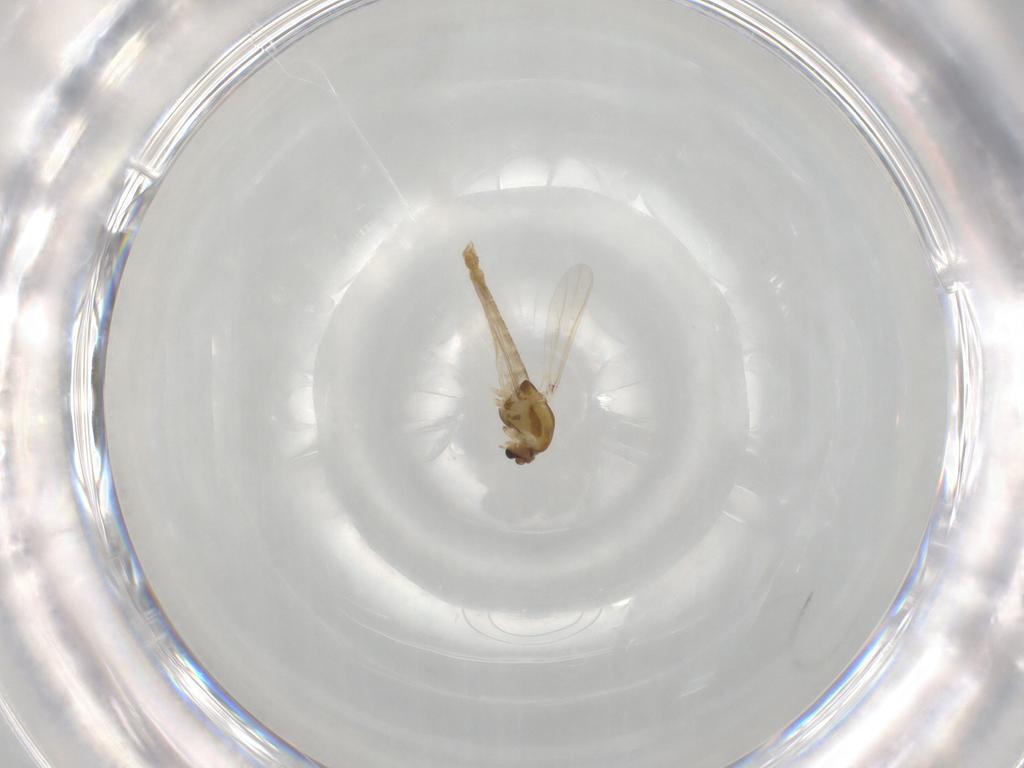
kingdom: Animalia
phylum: Arthropoda
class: Insecta
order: Diptera
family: Chironomidae
